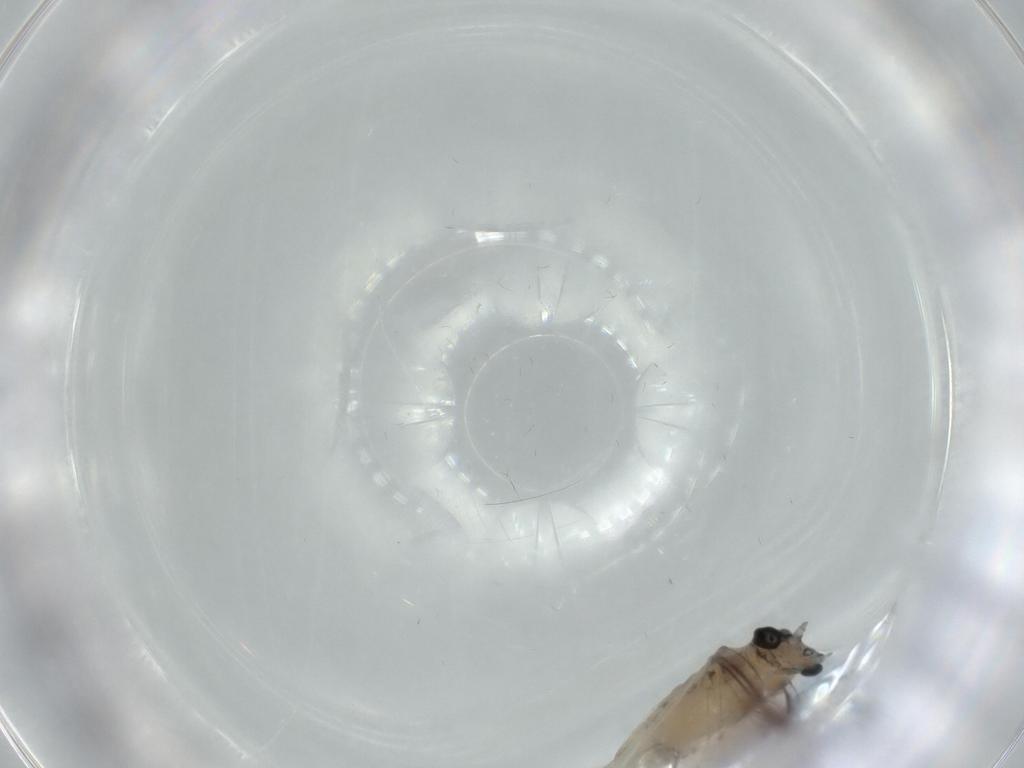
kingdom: Animalia
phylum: Arthropoda
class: Insecta
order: Ephemeroptera
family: Caenidae
